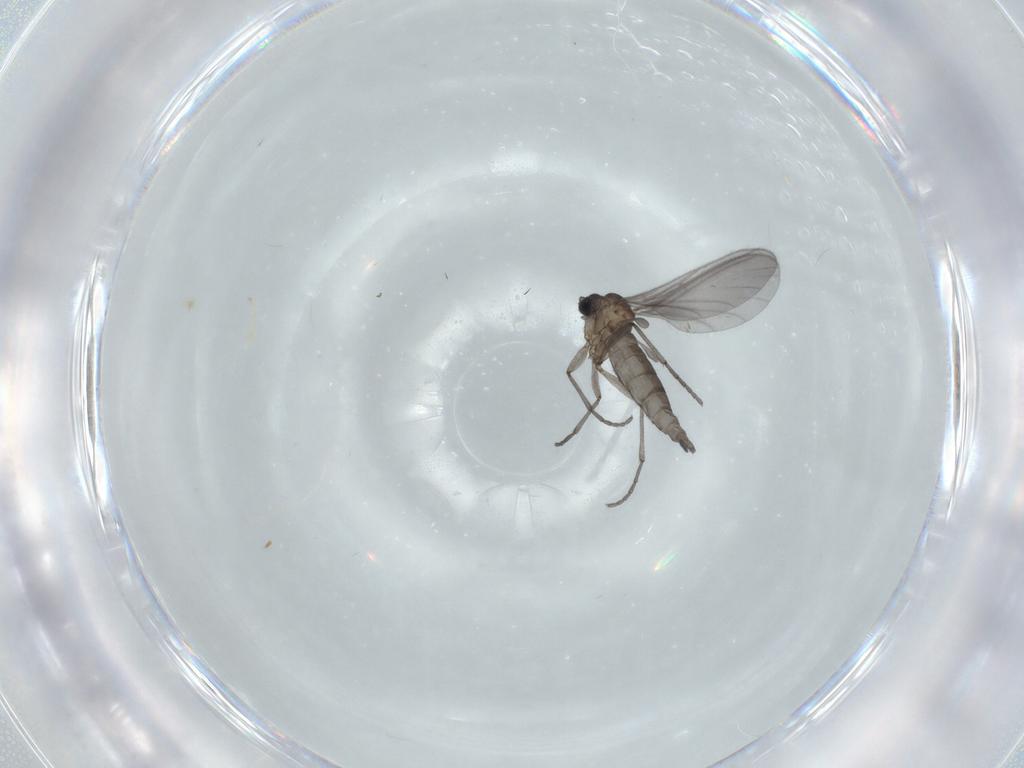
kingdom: Animalia
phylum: Arthropoda
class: Insecta
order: Diptera
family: Sciaridae
